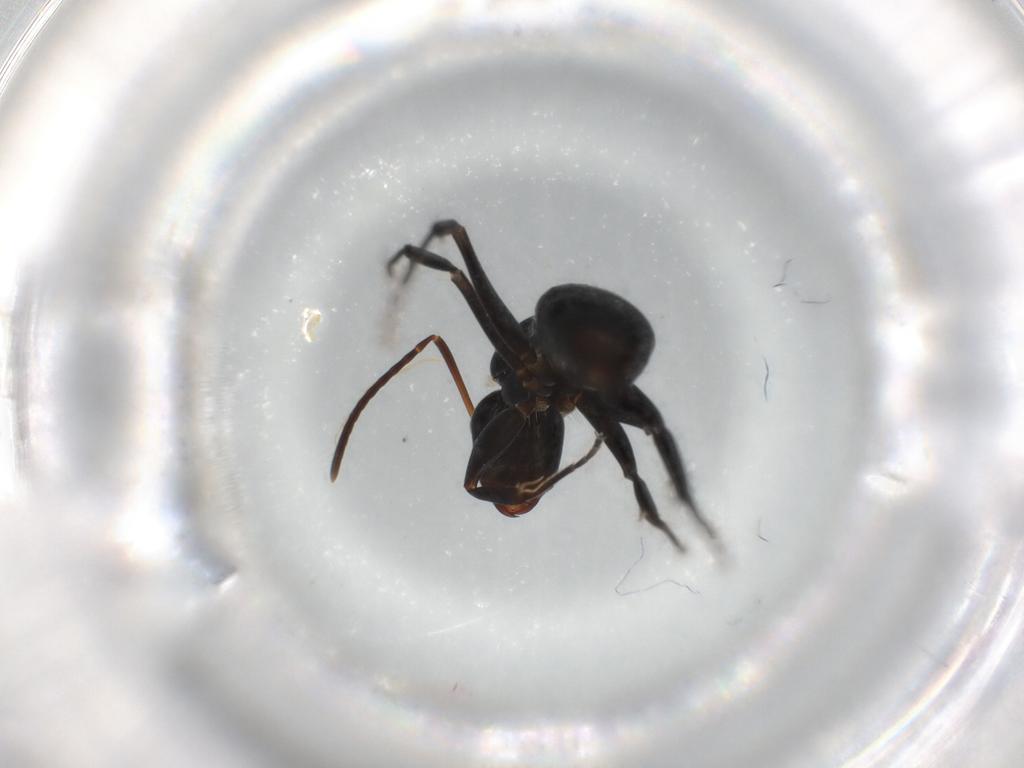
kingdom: Animalia
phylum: Arthropoda
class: Insecta
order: Hymenoptera
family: Formicidae
